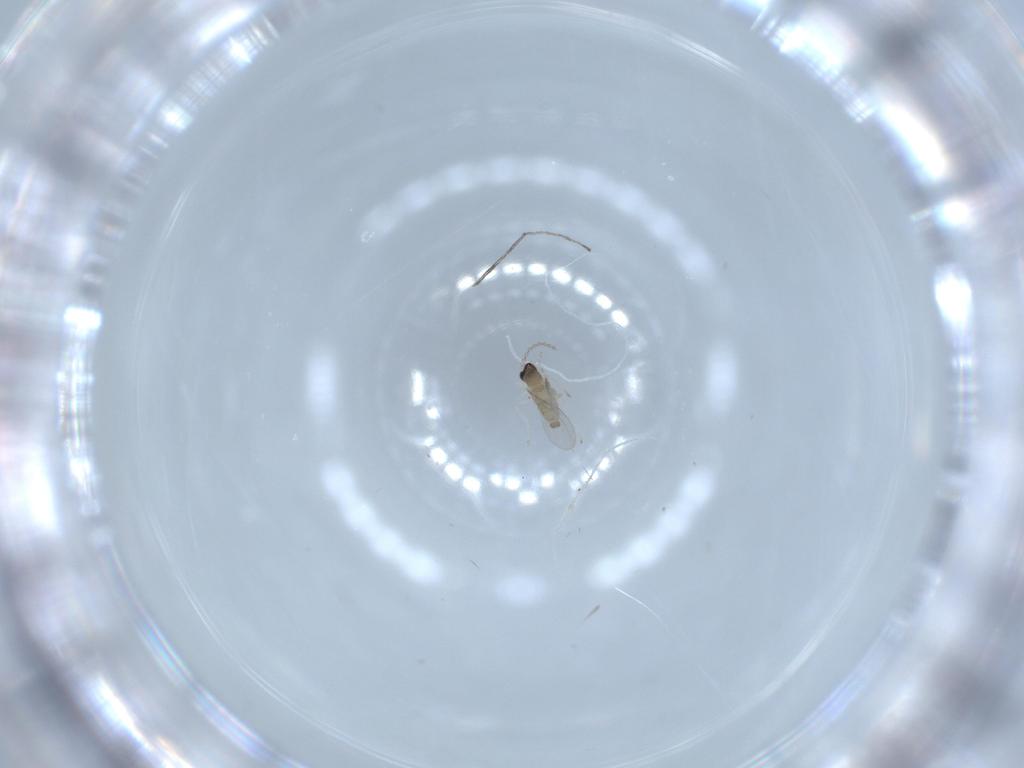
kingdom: Animalia
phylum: Arthropoda
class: Insecta
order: Diptera
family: Cecidomyiidae
